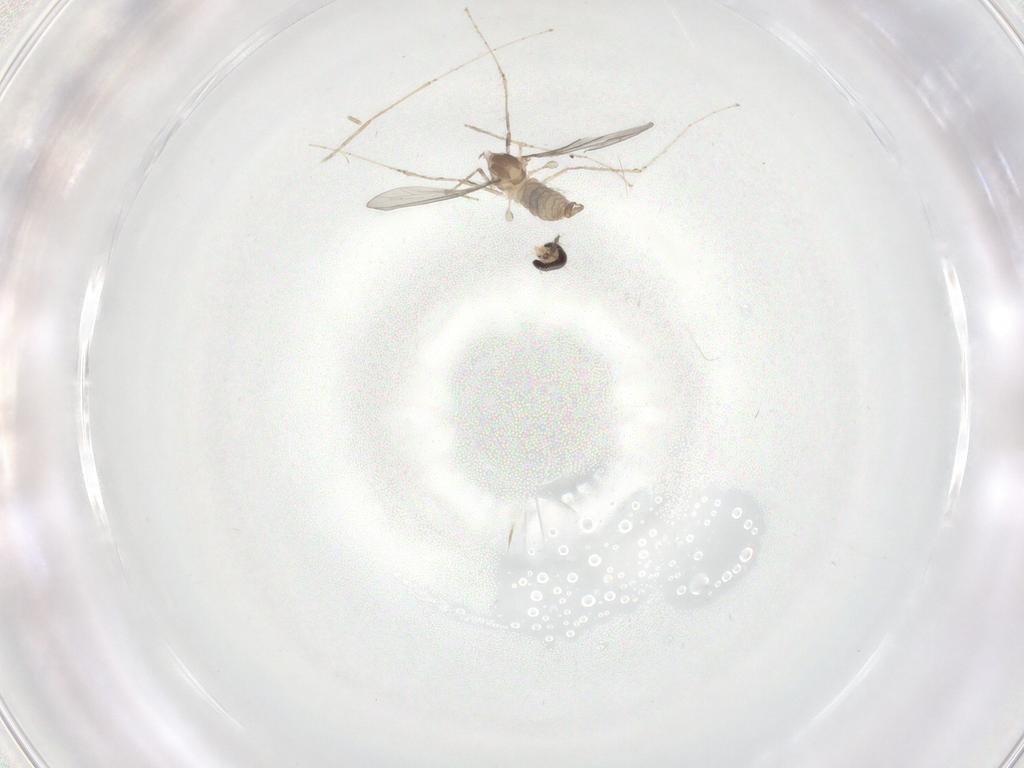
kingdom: Animalia
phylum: Arthropoda
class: Insecta
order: Diptera
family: Cecidomyiidae
